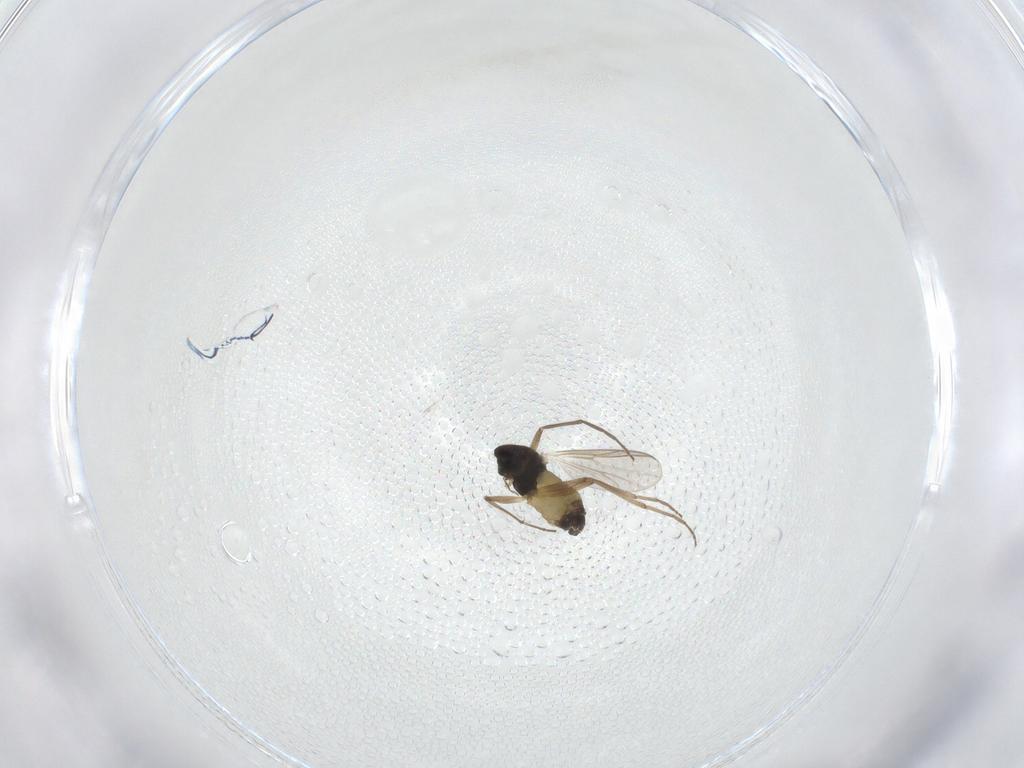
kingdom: Animalia
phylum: Arthropoda
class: Insecta
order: Diptera
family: Chironomidae
